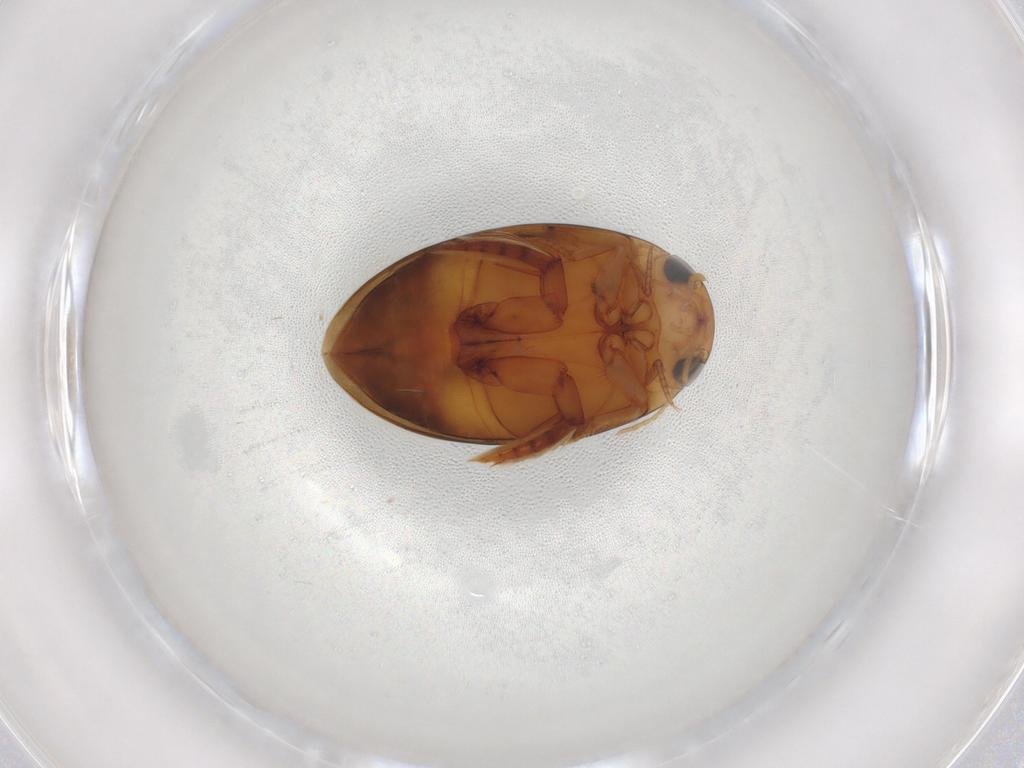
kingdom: Animalia
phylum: Arthropoda
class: Insecta
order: Coleoptera
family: Dytiscidae
